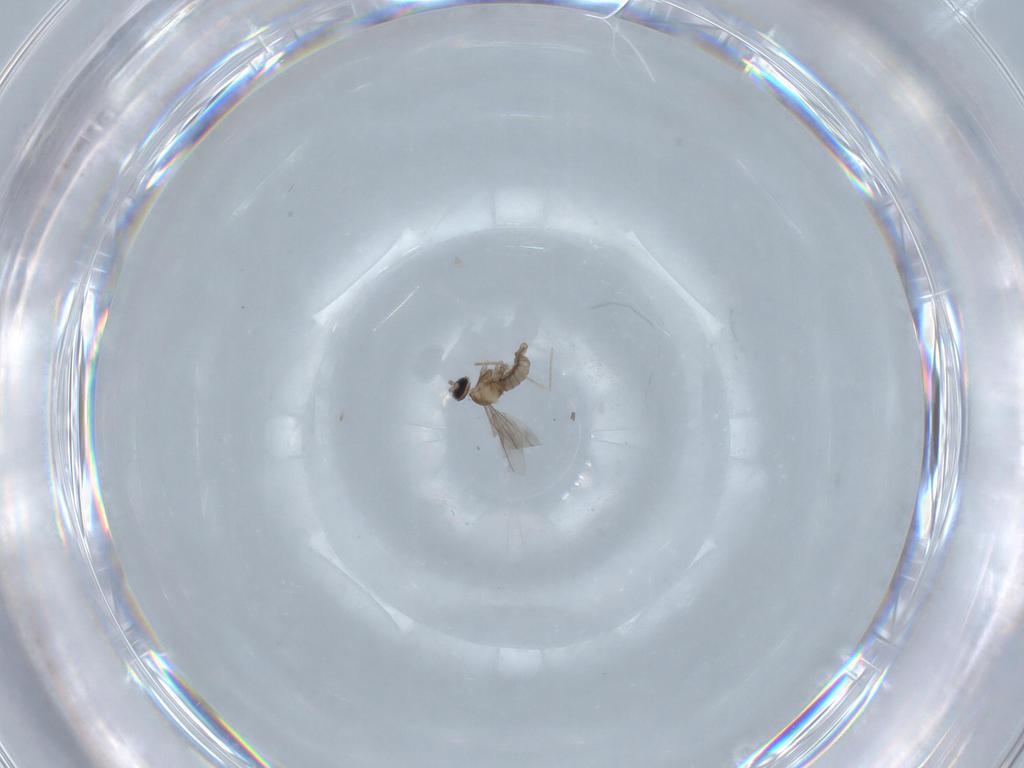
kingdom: Animalia
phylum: Arthropoda
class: Insecta
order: Diptera
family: Cecidomyiidae
